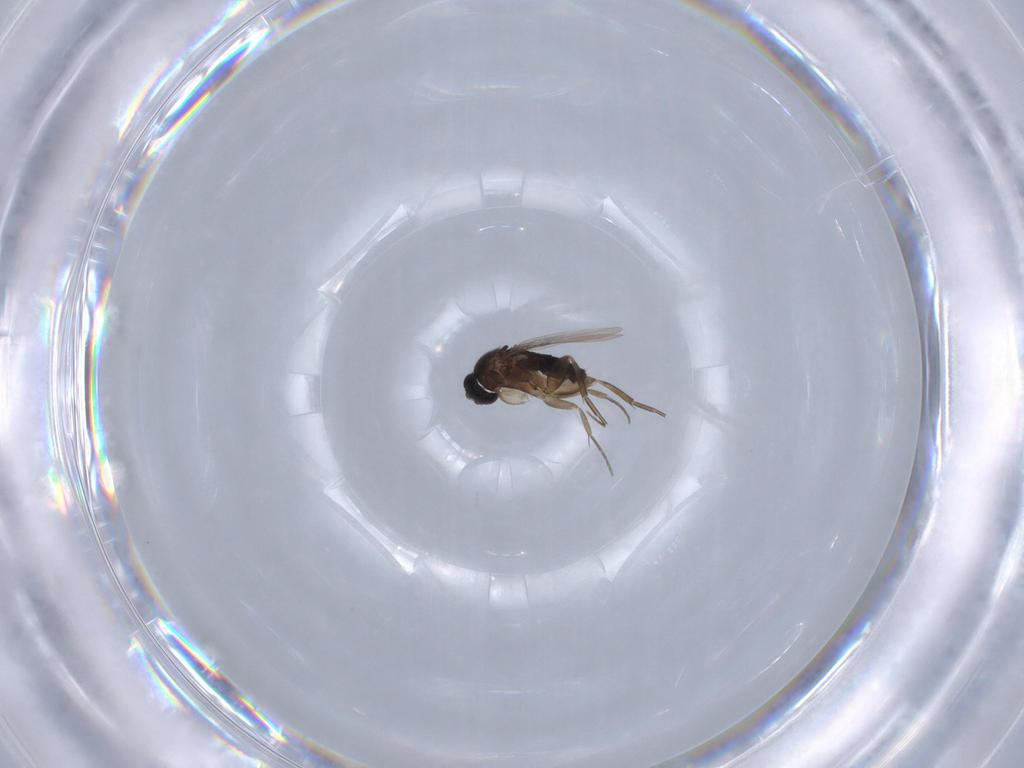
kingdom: Animalia
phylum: Arthropoda
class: Insecta
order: Diptera
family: Phoridae
